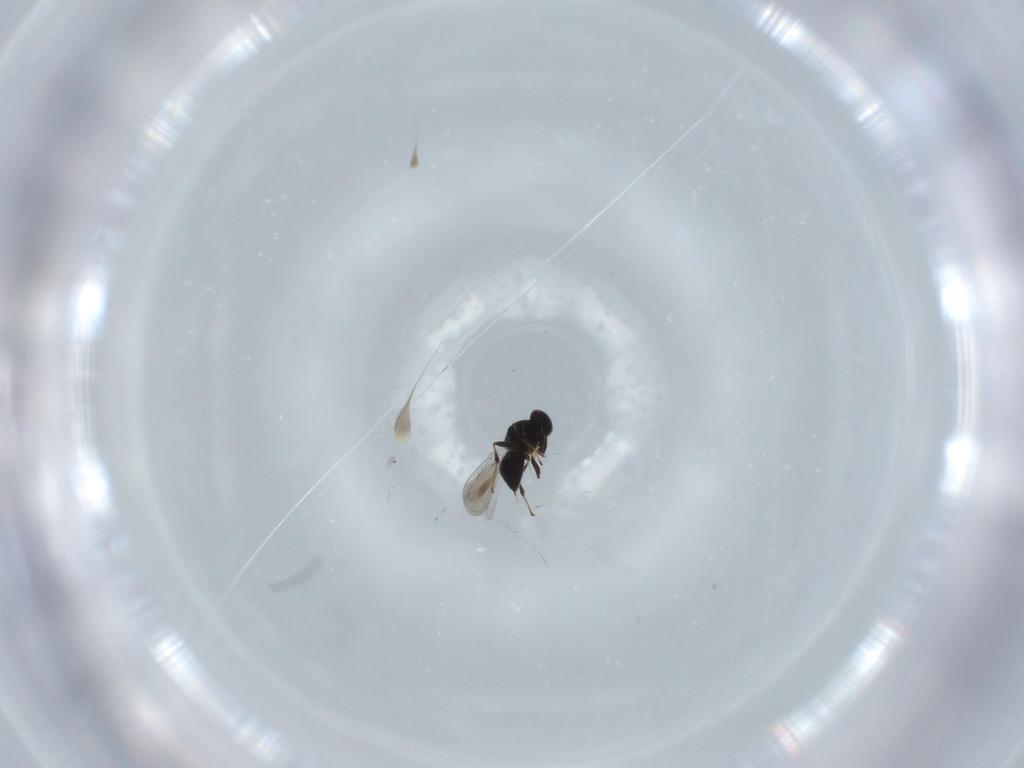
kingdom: Animalia
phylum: Arthropoda
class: Insecta
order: Hymenoptera
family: Platygastridae
